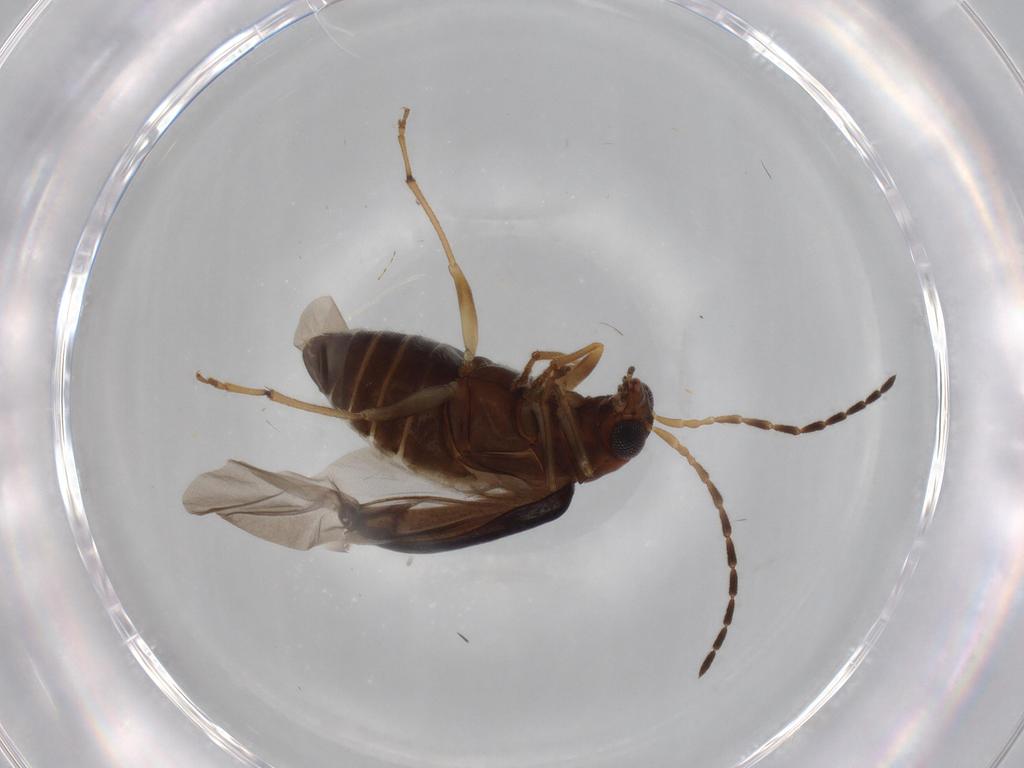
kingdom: Animalia
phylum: Arthropoda
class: Insecta
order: Coleoptera
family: Chrysomelidae
